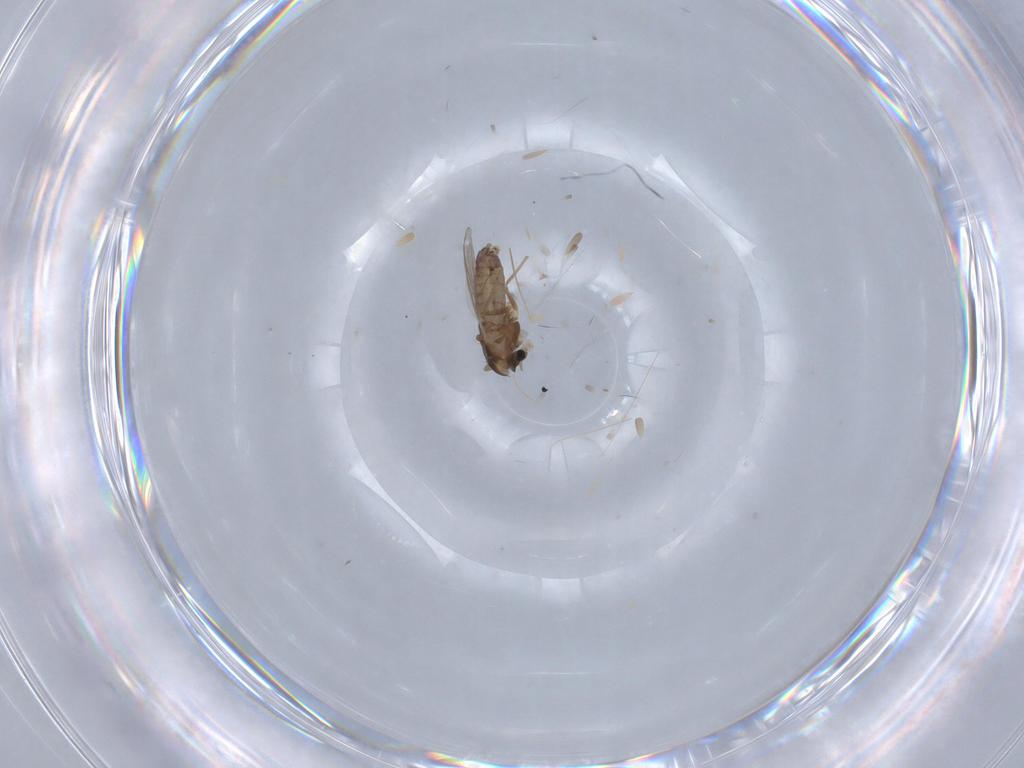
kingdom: Animalia
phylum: Arthropoda
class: Insecta
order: Diptera
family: Chironomidae
